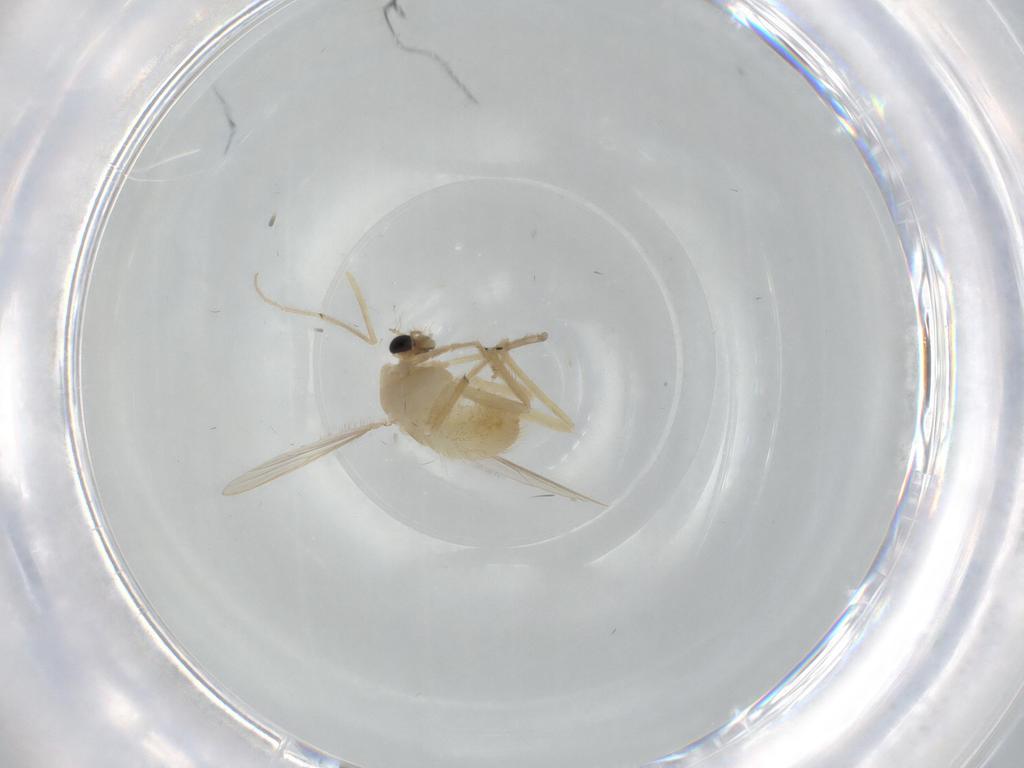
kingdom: Animalia
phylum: Arthropoda
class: Insecta
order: Diptera
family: Chironomidae
